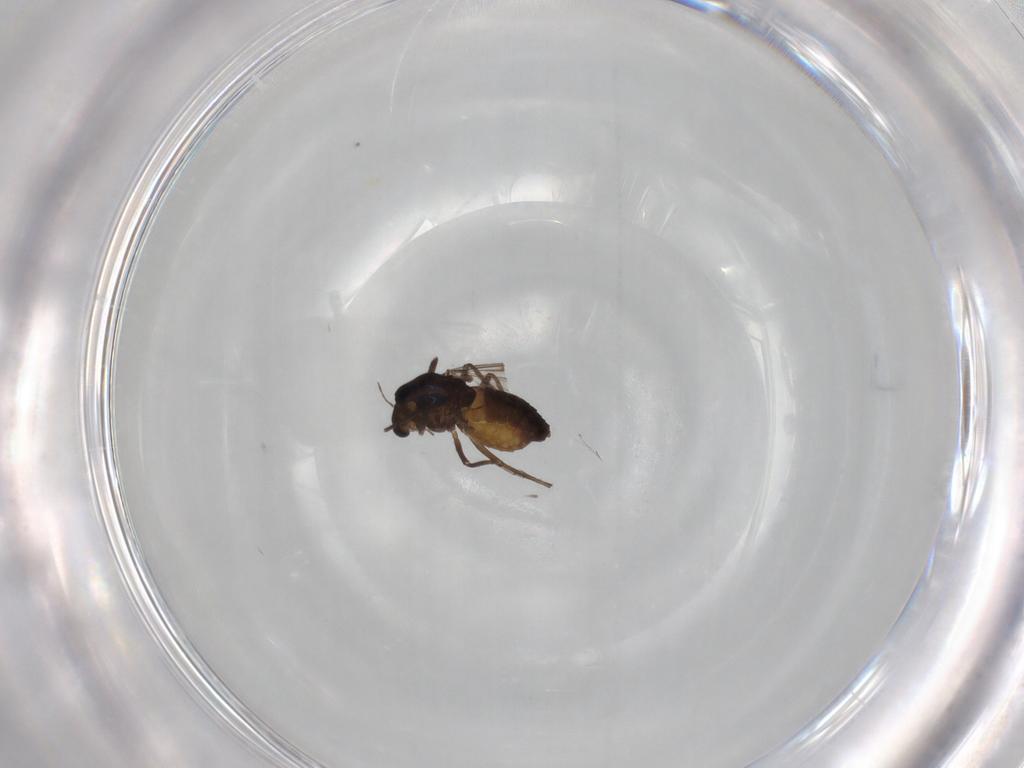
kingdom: Animalia
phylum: Arthropoda
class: Insecta
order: Diptera
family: Chironomidae
